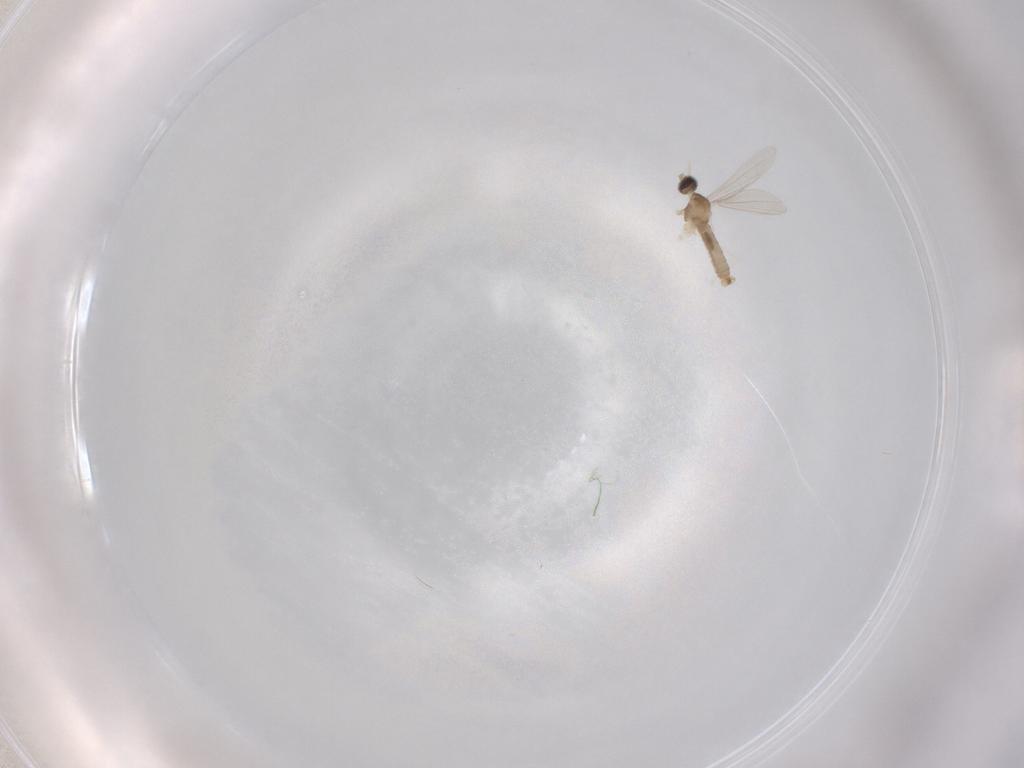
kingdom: Animalia
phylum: Arthropoda
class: Insecta
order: Diptera
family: Cecidomyiidae
